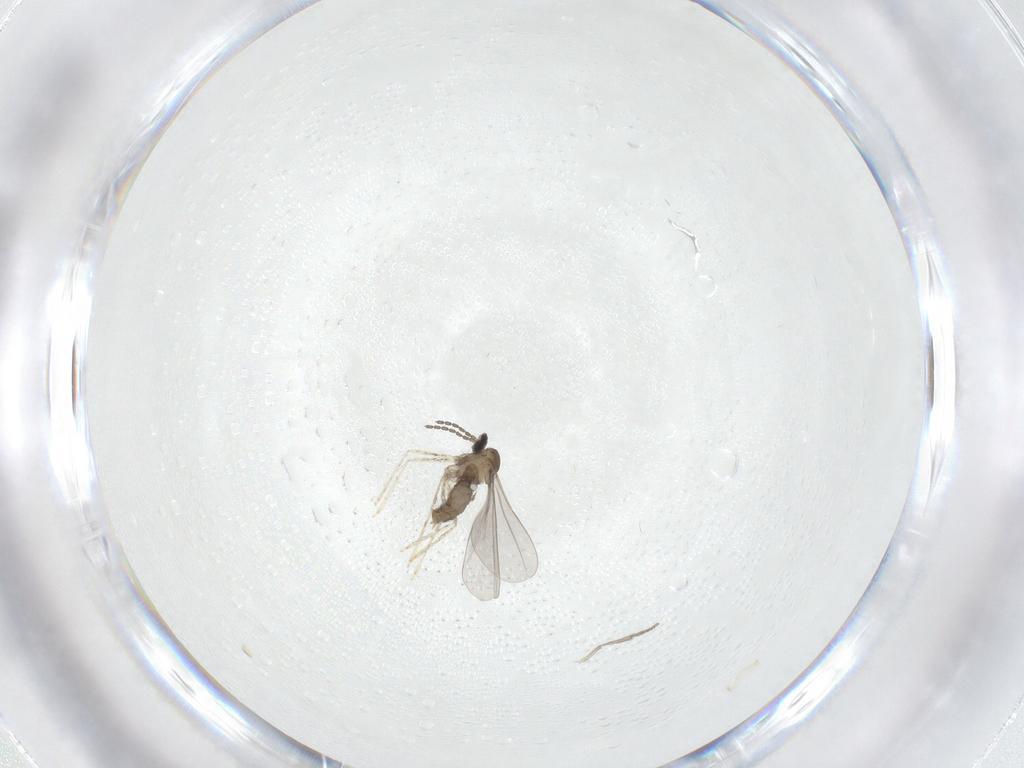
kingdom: Animalia
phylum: Arthropoda
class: Insecta
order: Diptera
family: Psychodidae
